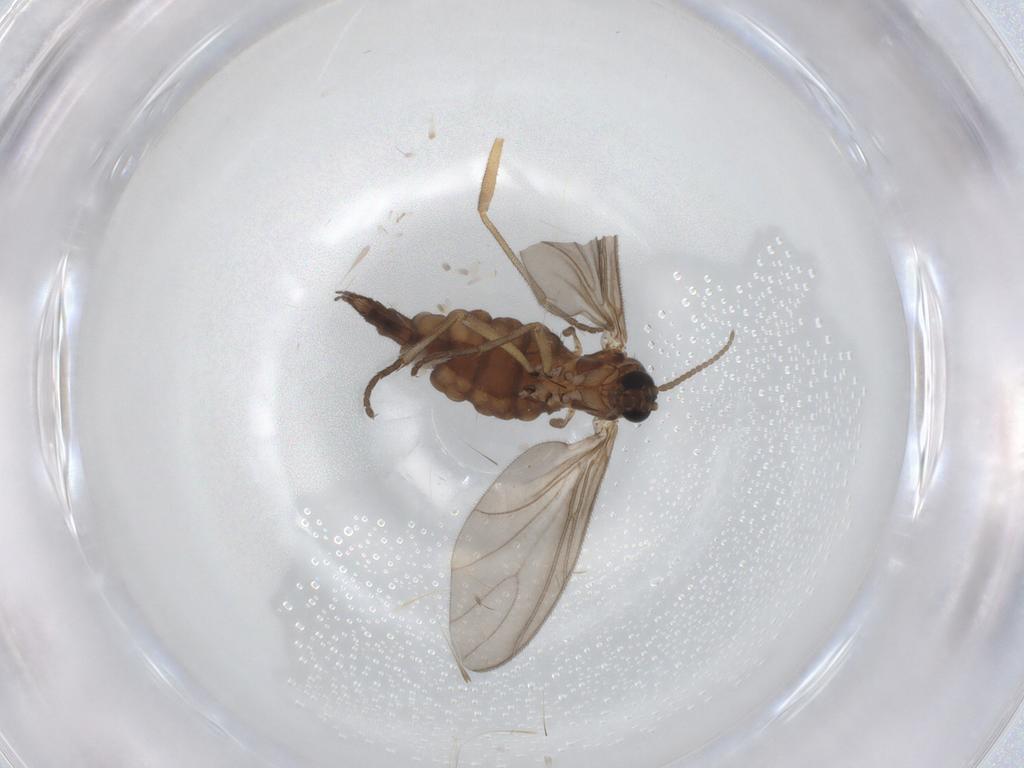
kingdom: Animalia
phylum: Arthropoda
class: Insecta
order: Diptera
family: Sciaridae
